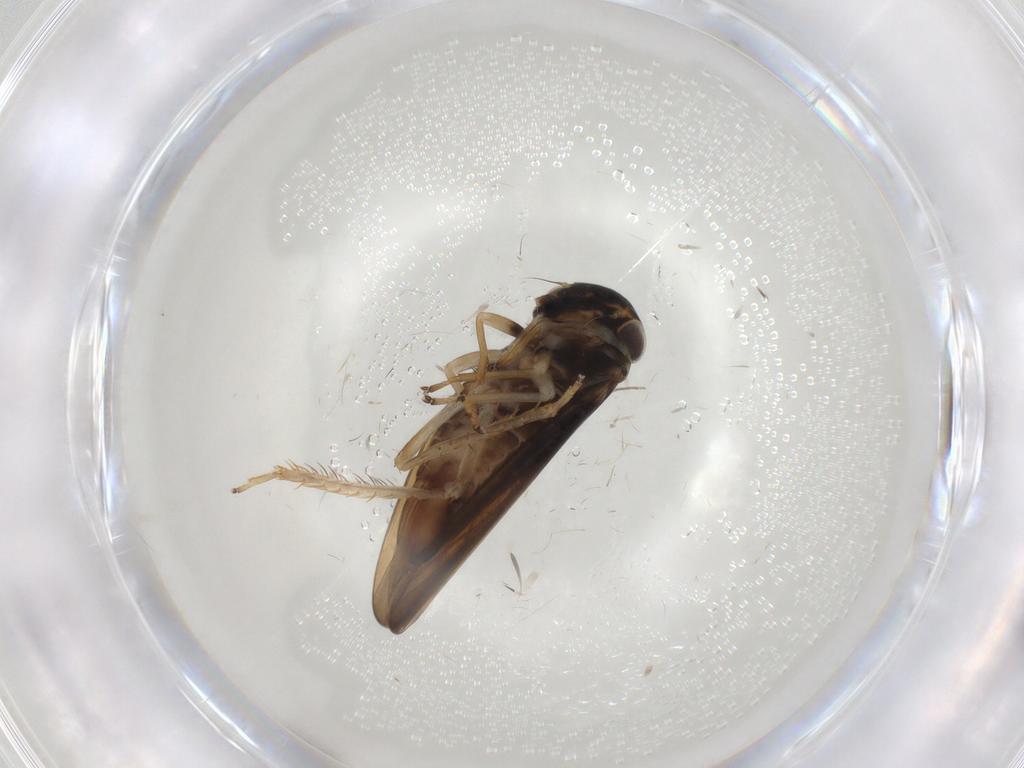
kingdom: Animalia
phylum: Arthropoda
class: Insecta
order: Hemiptera
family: Cicadellidae
